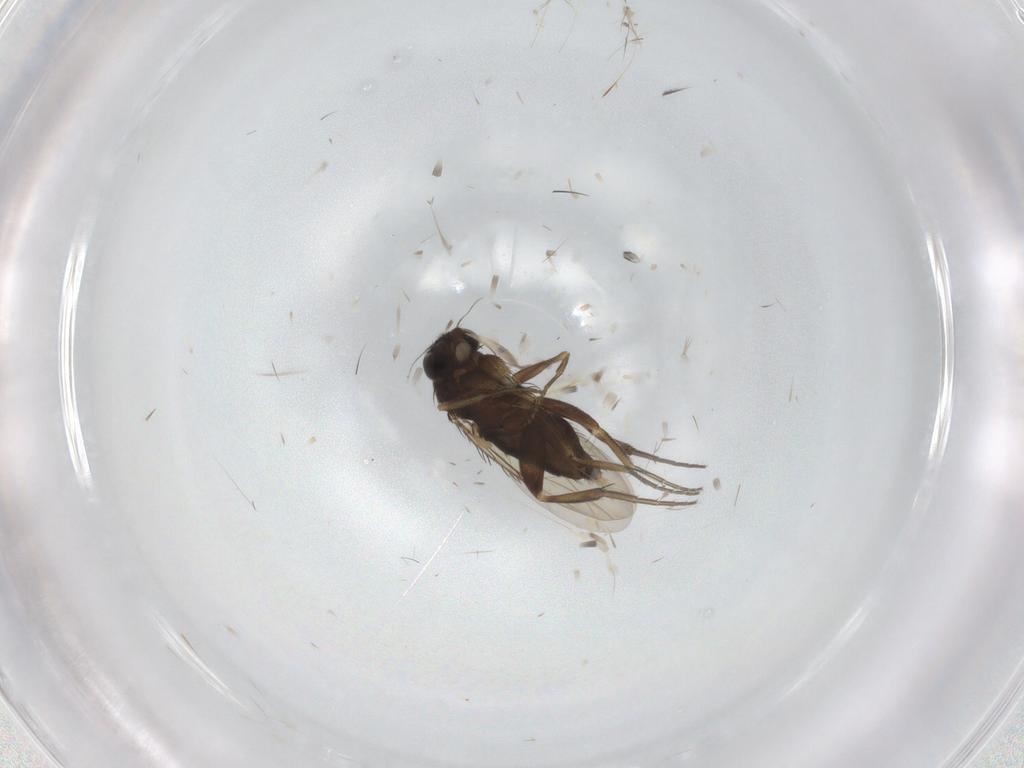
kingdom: Animalia
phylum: Arthropoda
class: Insecta
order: Diptera
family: Phoridae
